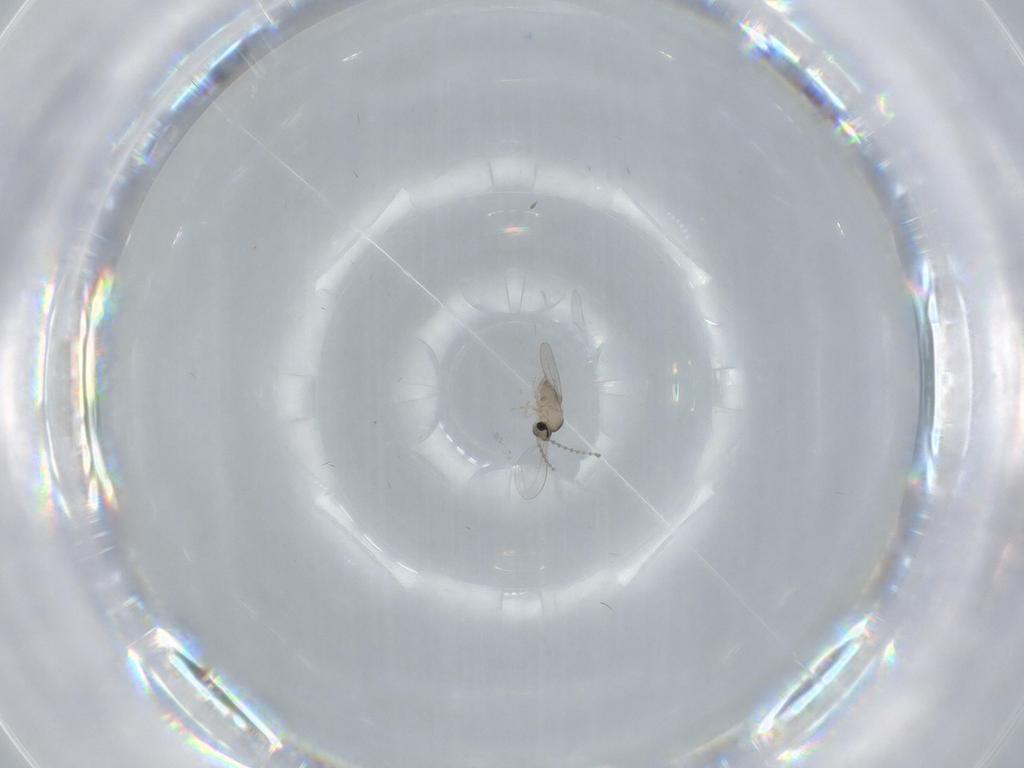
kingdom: Animalia
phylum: Arthropoda
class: Insecta
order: Diptera
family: Cecidomyiidae
